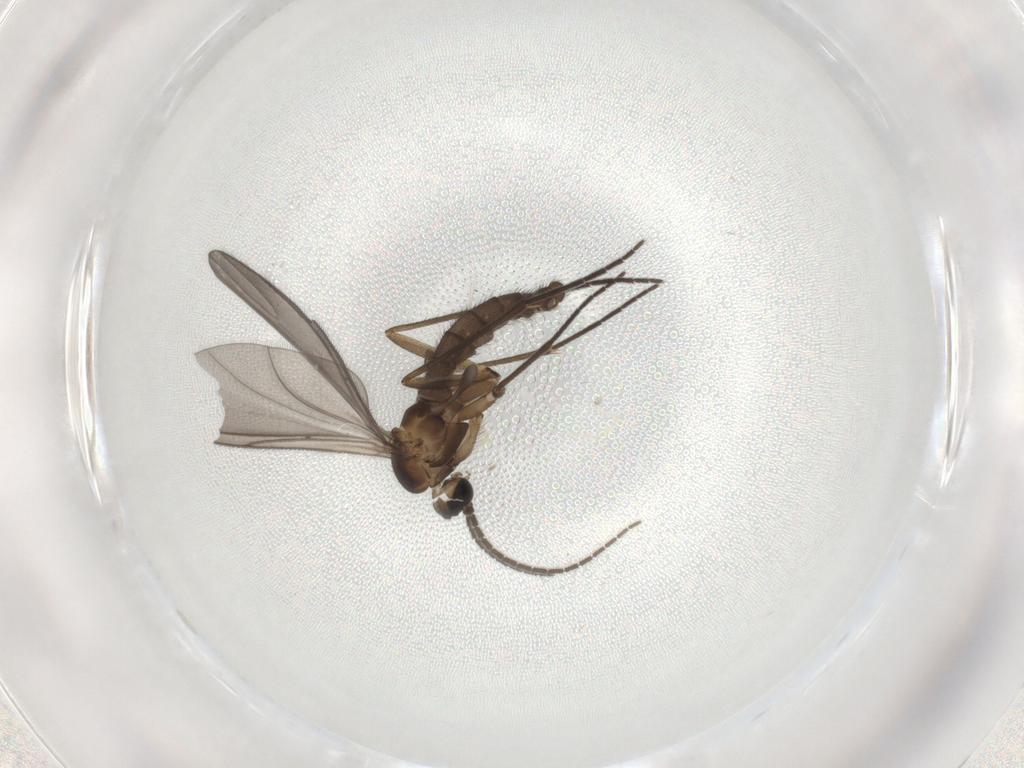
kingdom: Animalia
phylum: Arthropoda
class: Insecta
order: Diptera
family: Sciaridae
